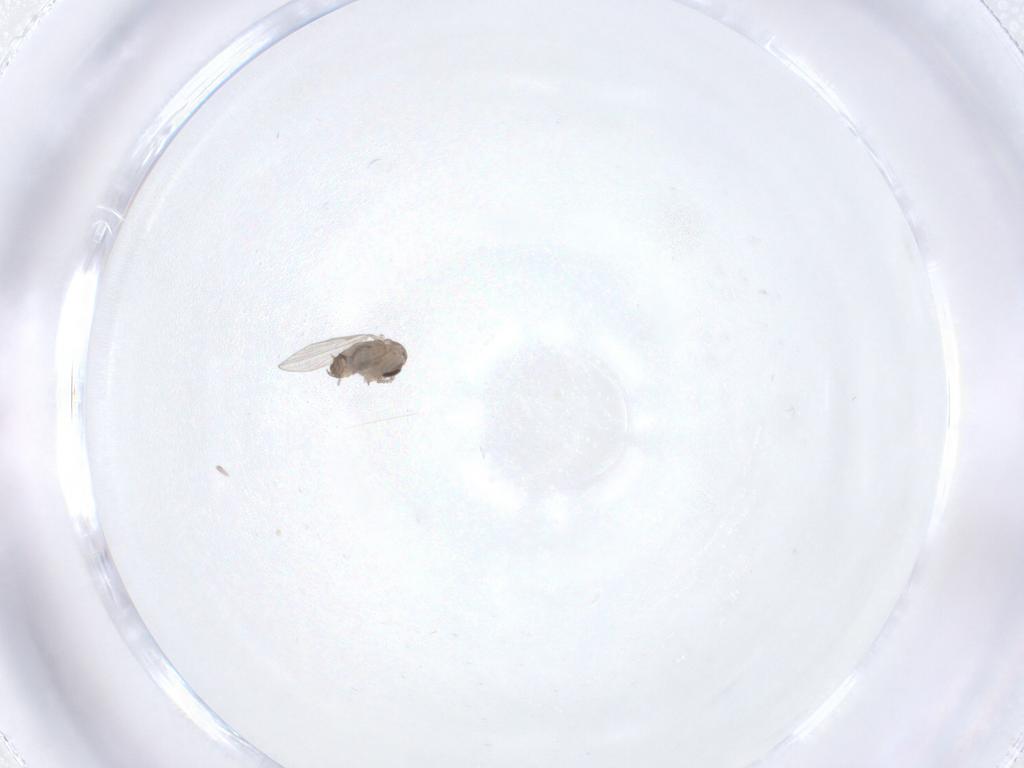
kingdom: Animalia
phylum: Arthropoda
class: Insecta
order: Diptera
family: Psychodidae
